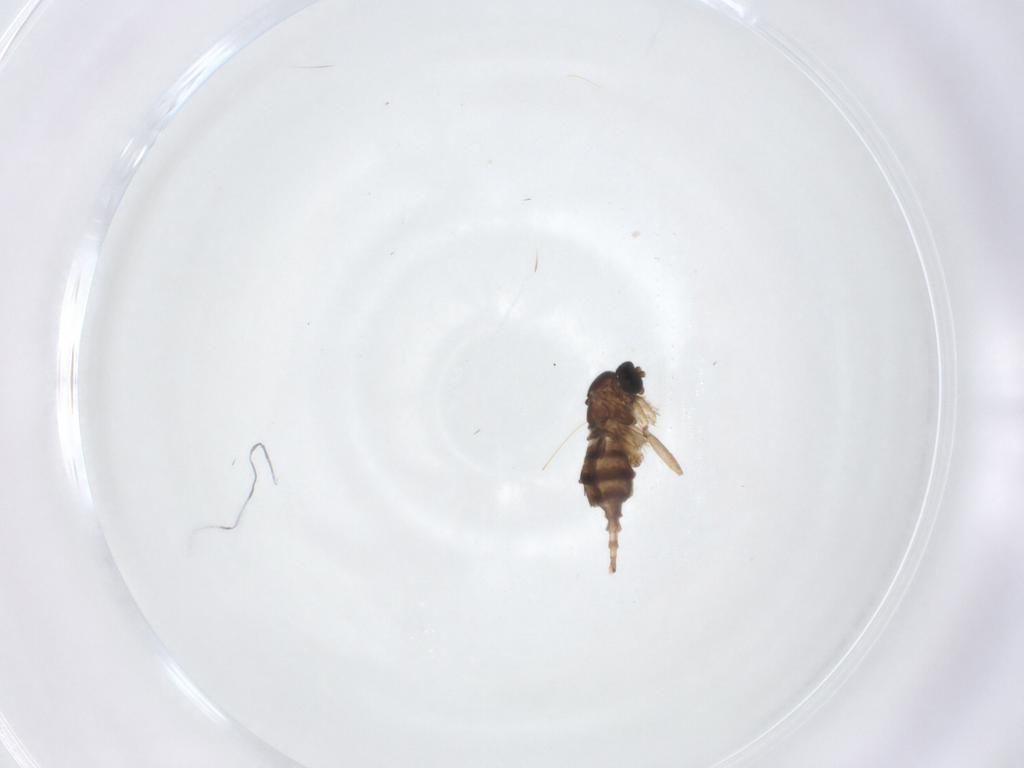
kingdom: Animalia
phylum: Arthropoda
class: Insecta
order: Diptera
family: Sciaridae
